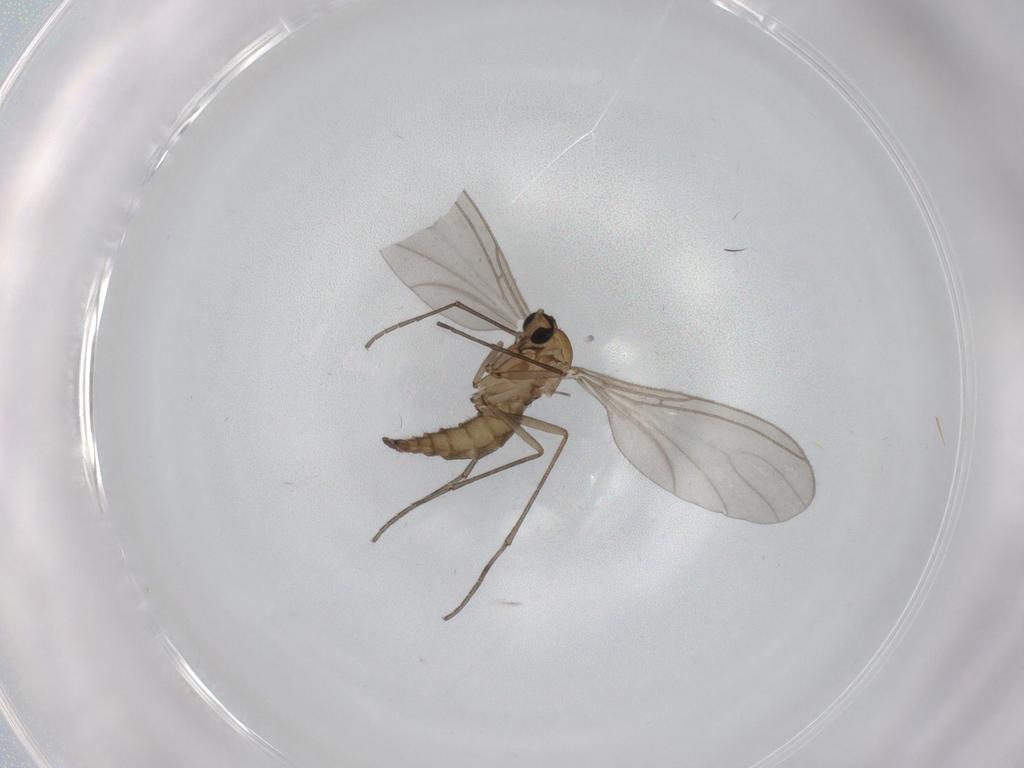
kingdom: Animalia
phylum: Arthropoda
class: Insecta
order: Diptera
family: Sciaridae
